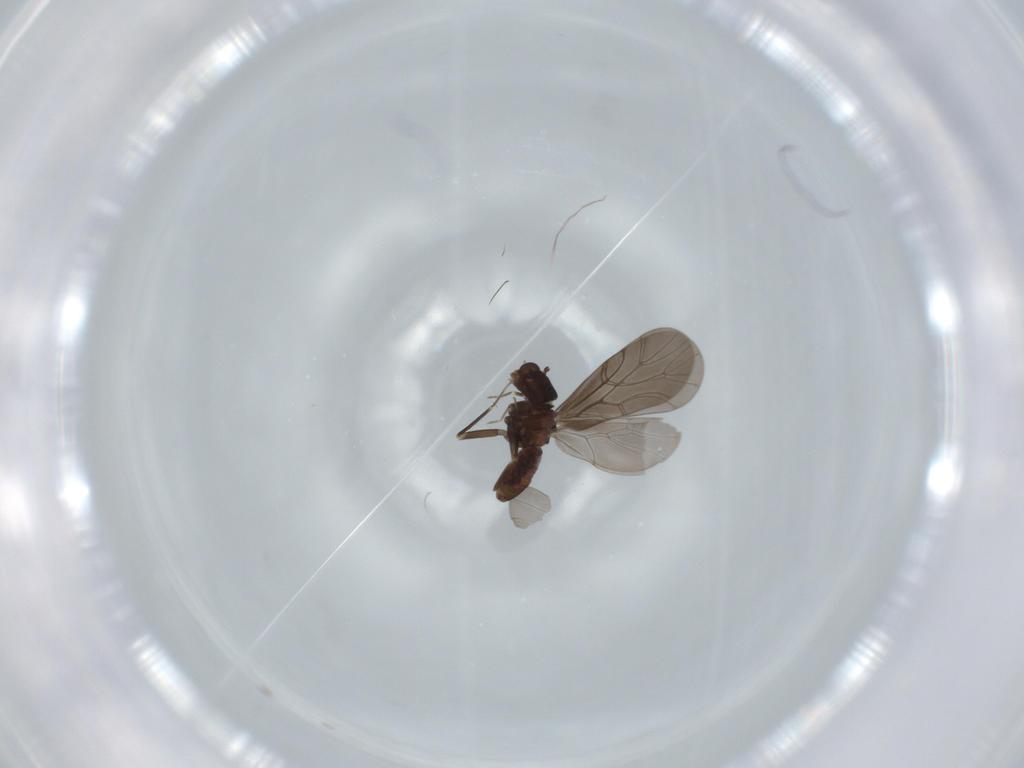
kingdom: Animalia
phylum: Arthropoda
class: Insecta
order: Psocodea
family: Lepidopsocidae
